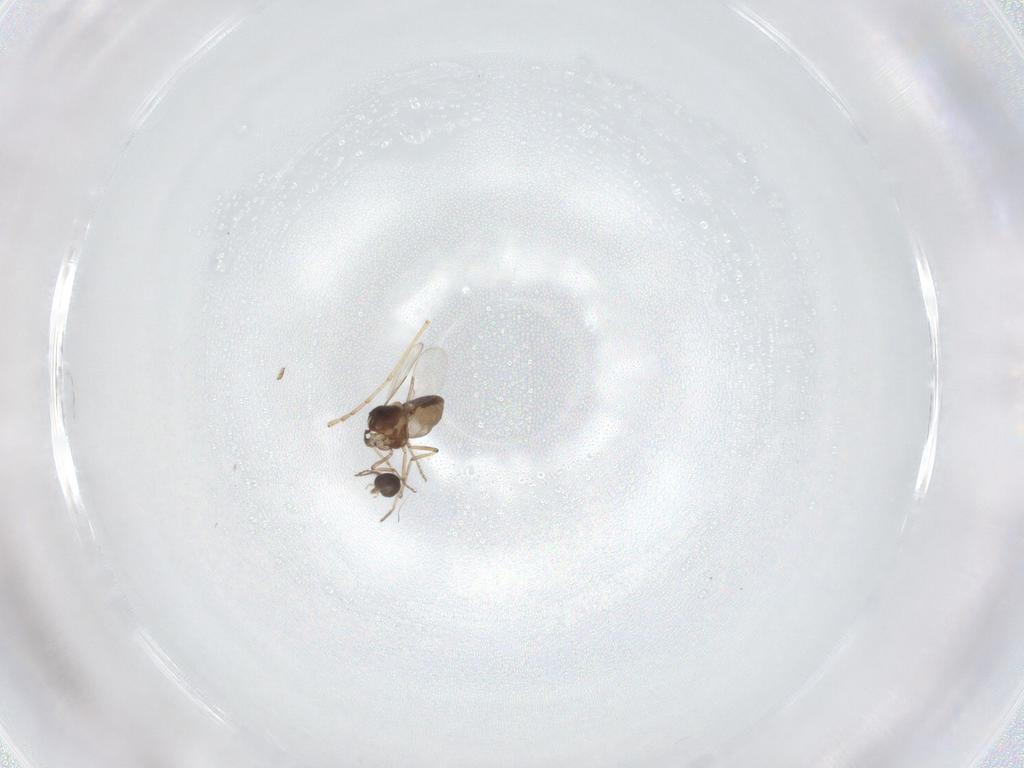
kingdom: Animalia
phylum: Arthropoda
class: Insecta
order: Diptera
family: Ceratopogonidae
